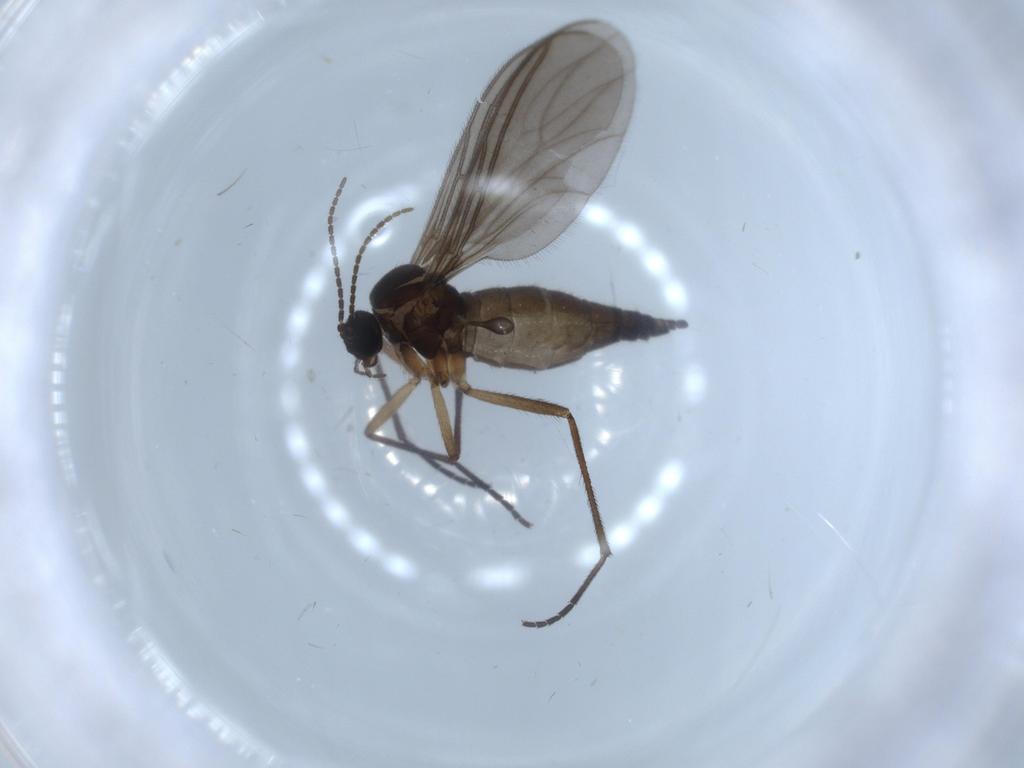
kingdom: Animalia
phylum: Arthropoda
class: Insecta
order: Diptera
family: Sciaridae
